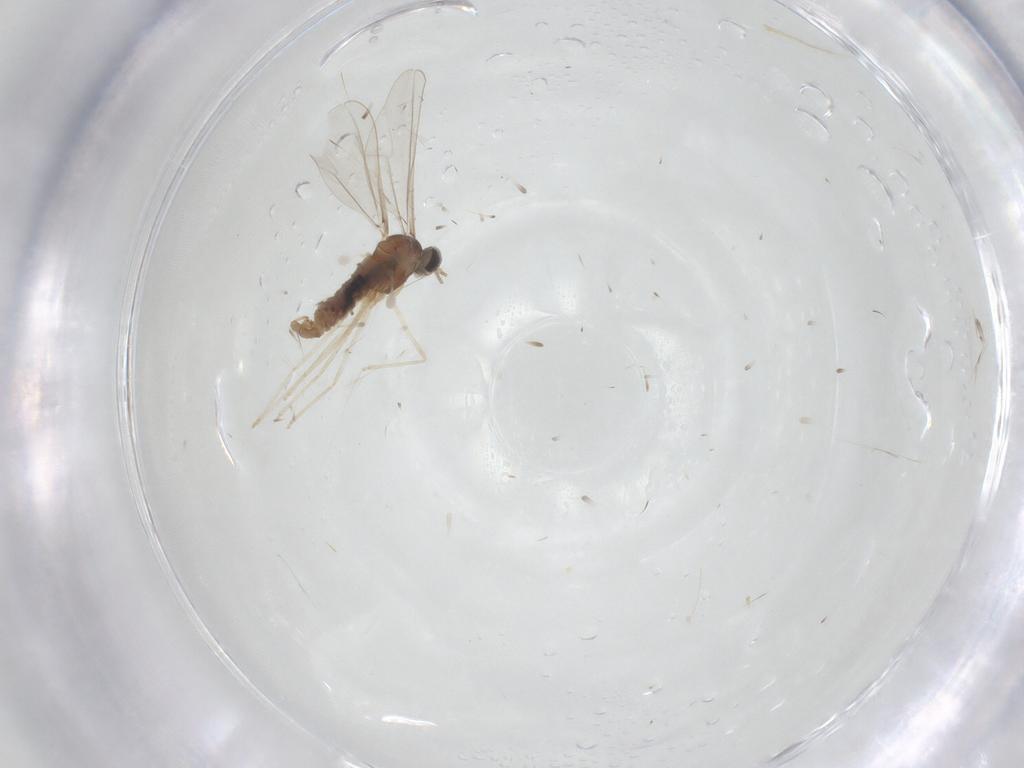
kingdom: Animalia
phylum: Arthropoda
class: Insecta
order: Diptera
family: Cecidomyiidae
